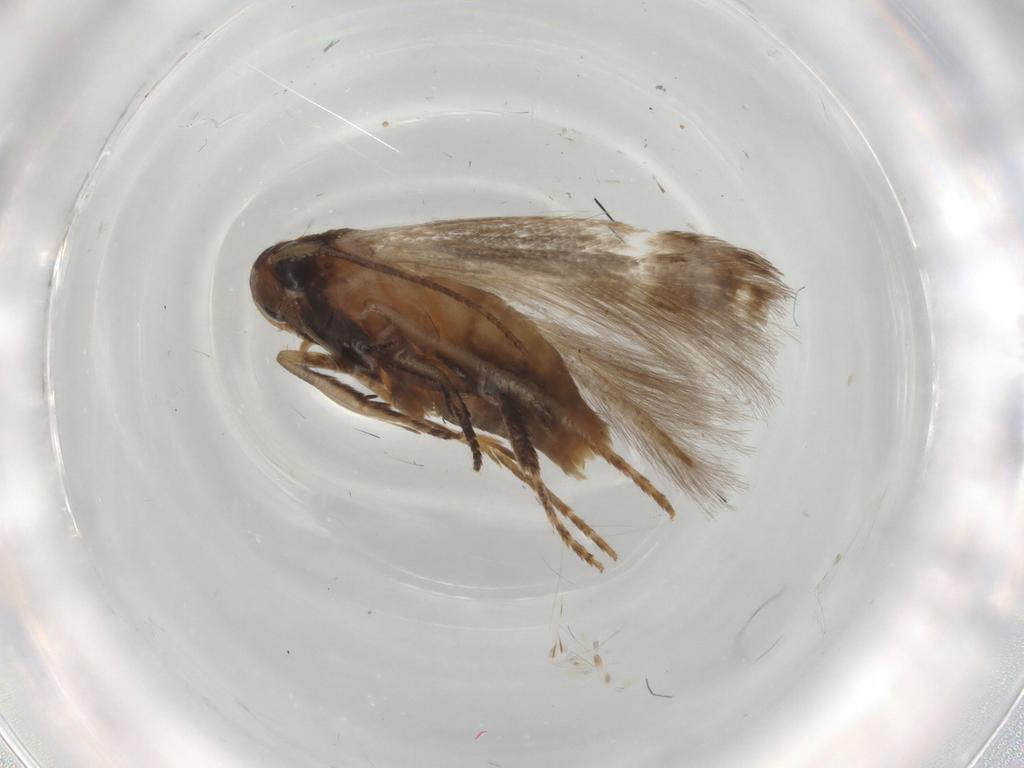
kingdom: Animalia
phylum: Arthropoda
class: Insecta
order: Lepidoptera
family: Cosmopterigidae
